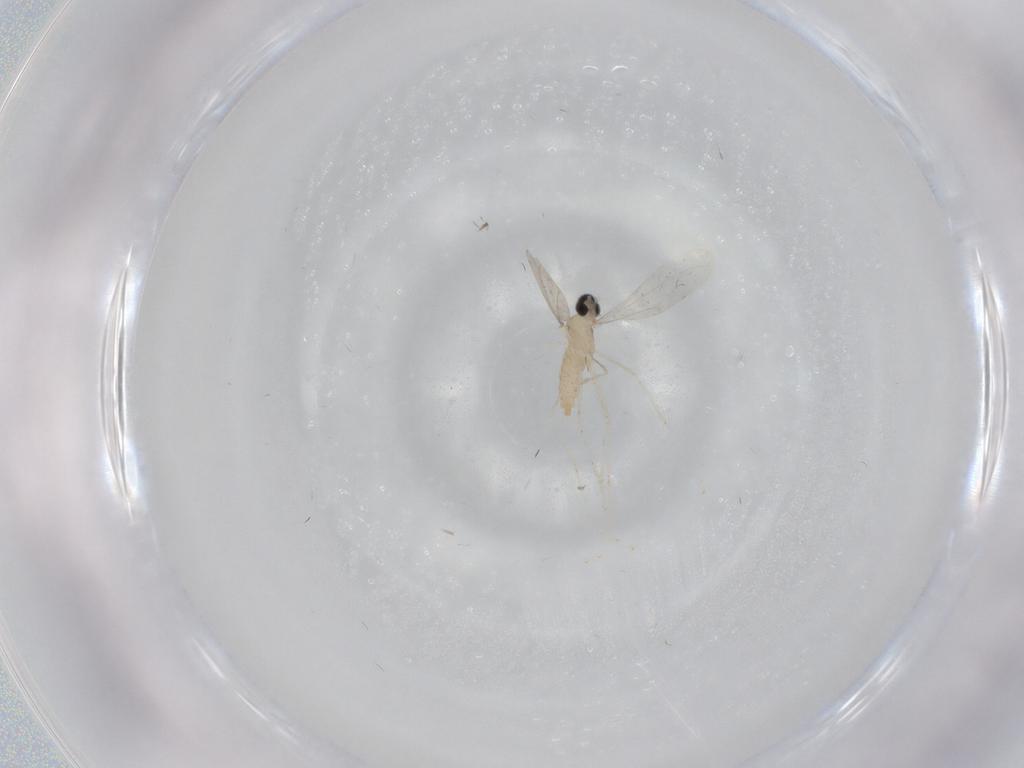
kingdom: Animalia
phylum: Arthropoda
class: Insecta
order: Diptera
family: Cecidomyiidae
